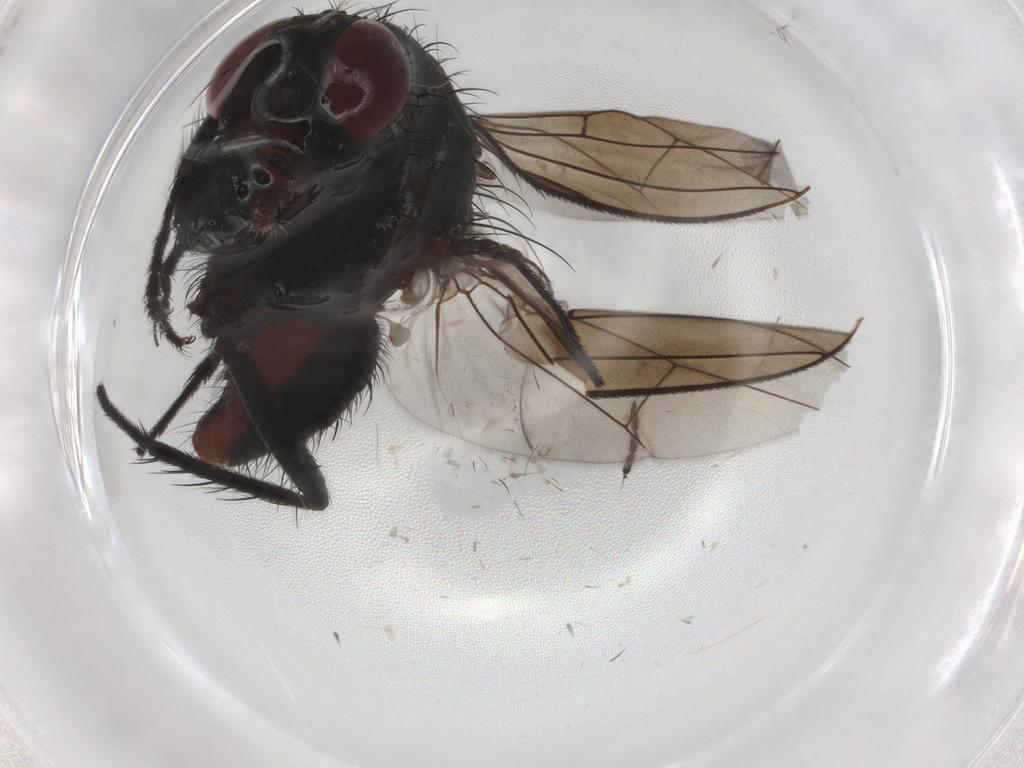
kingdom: Animalia
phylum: Arthropoda
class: Insecta
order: Diptera
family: Anthomyiidae
